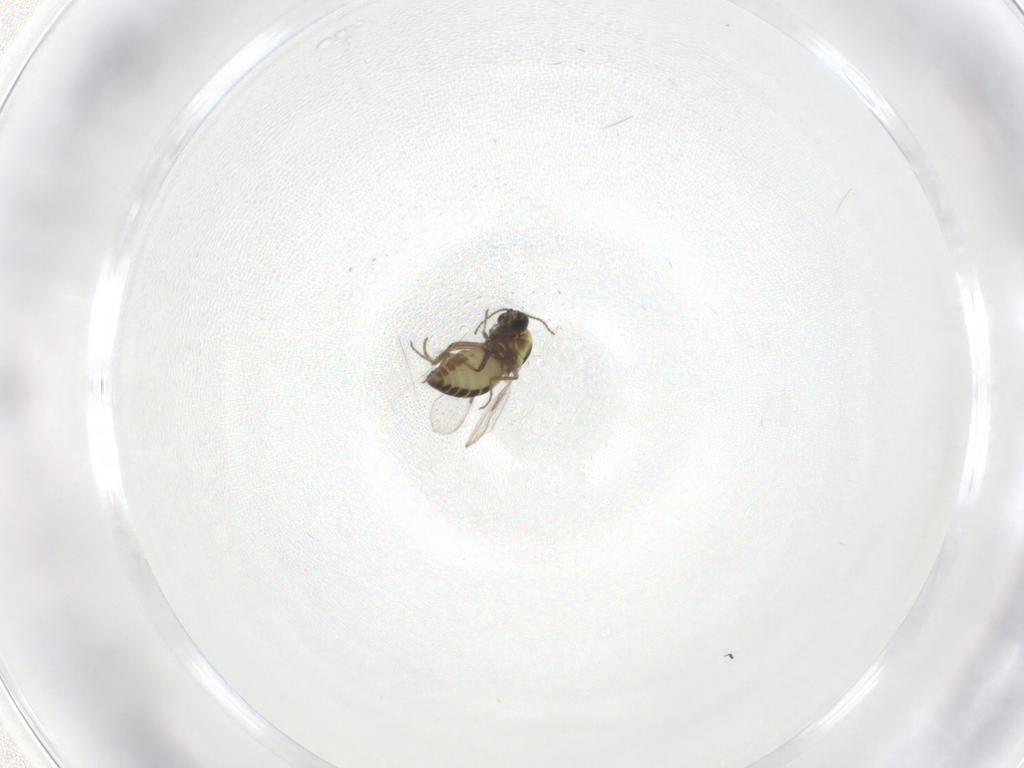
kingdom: Animalia
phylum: Arthropoda
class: Insecta
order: Diptera
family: Ceratopogonidae
